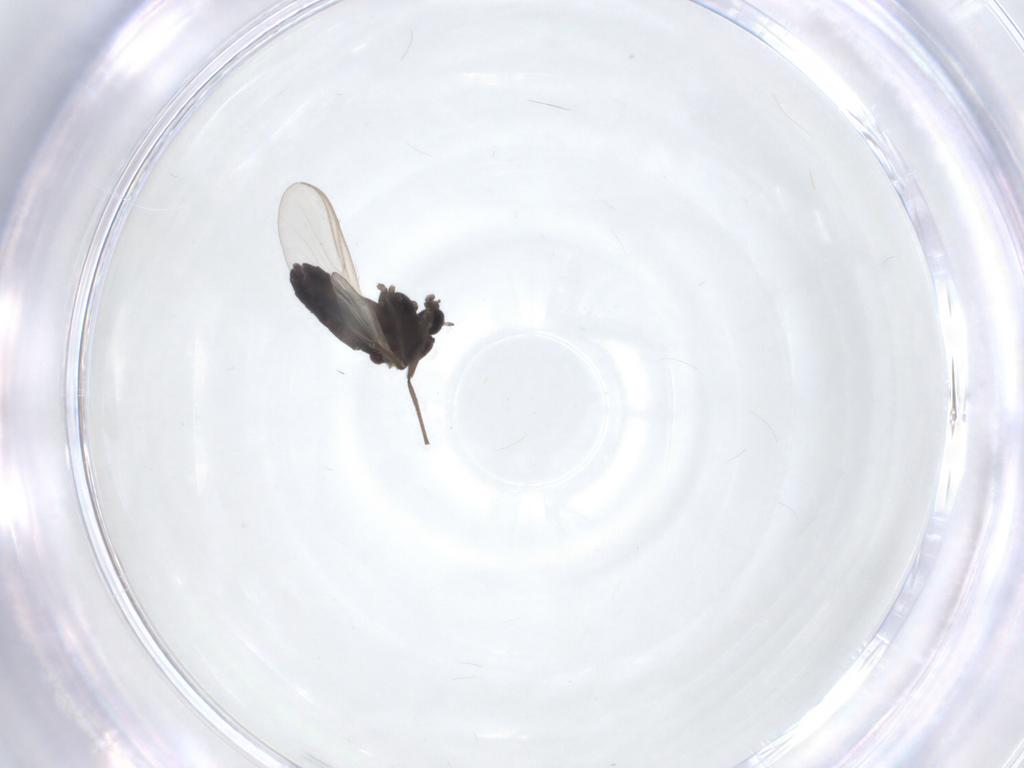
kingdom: Animalia
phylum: Arthropoda
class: Insecta
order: Diptera
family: Chironomidae
